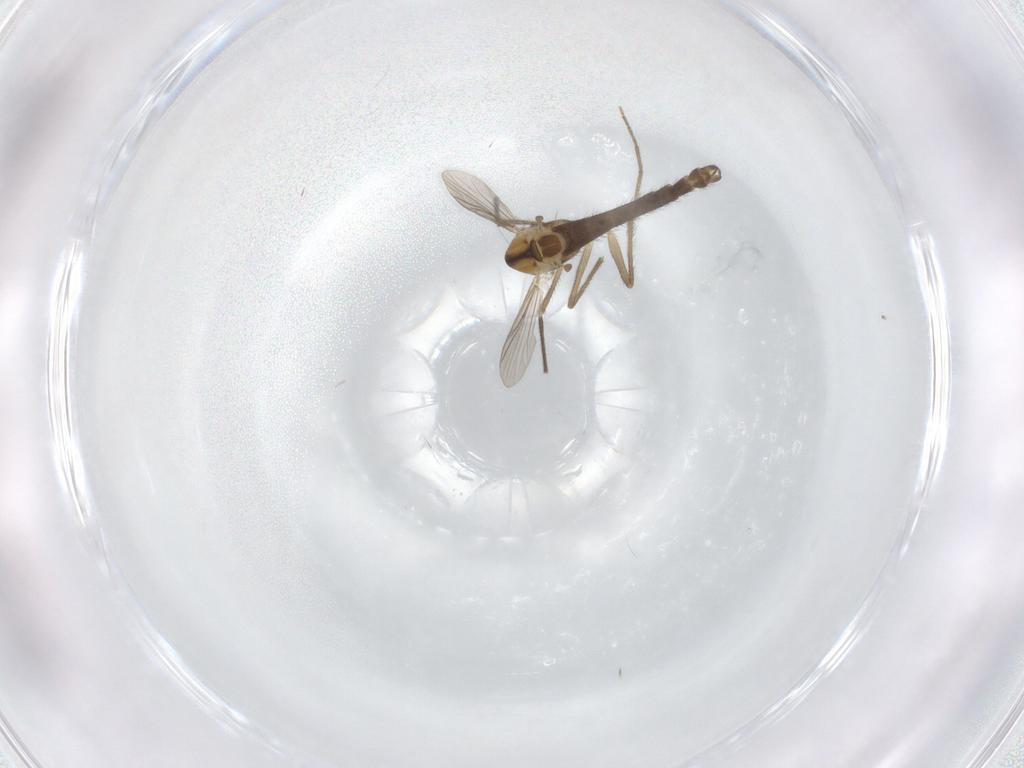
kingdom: Animalia
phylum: Arthropoda
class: Insecta
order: Diptera
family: Chironomidae
